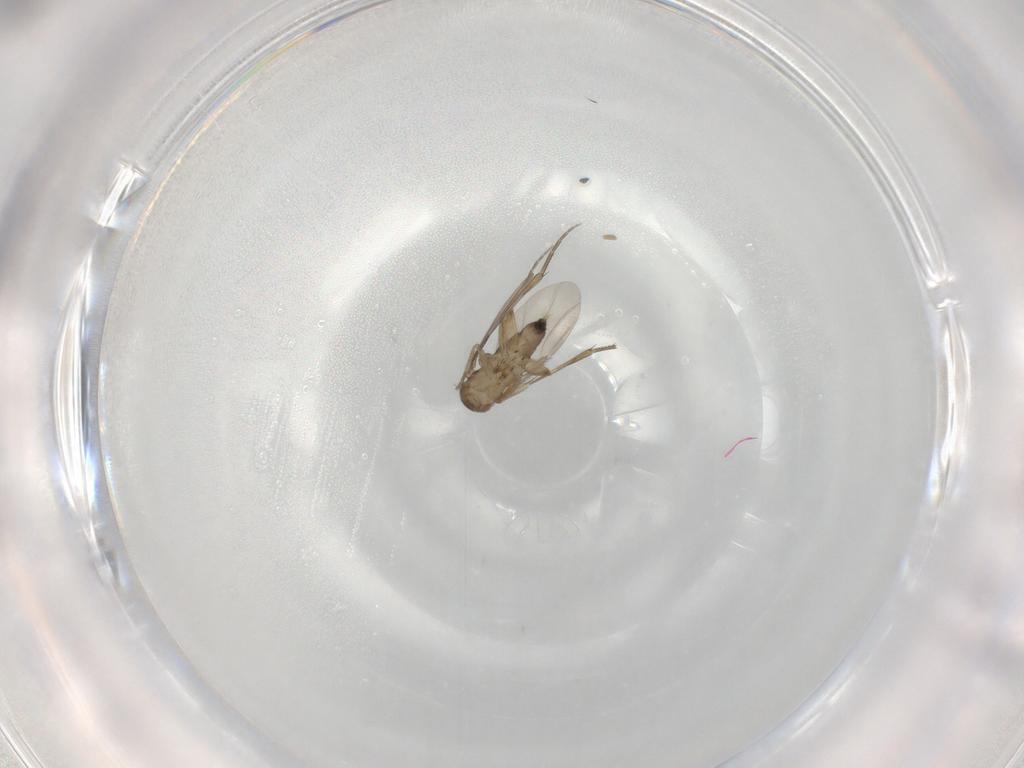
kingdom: Animalia
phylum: Arthropoda
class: Insecta
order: Diptera
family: Phoridae
